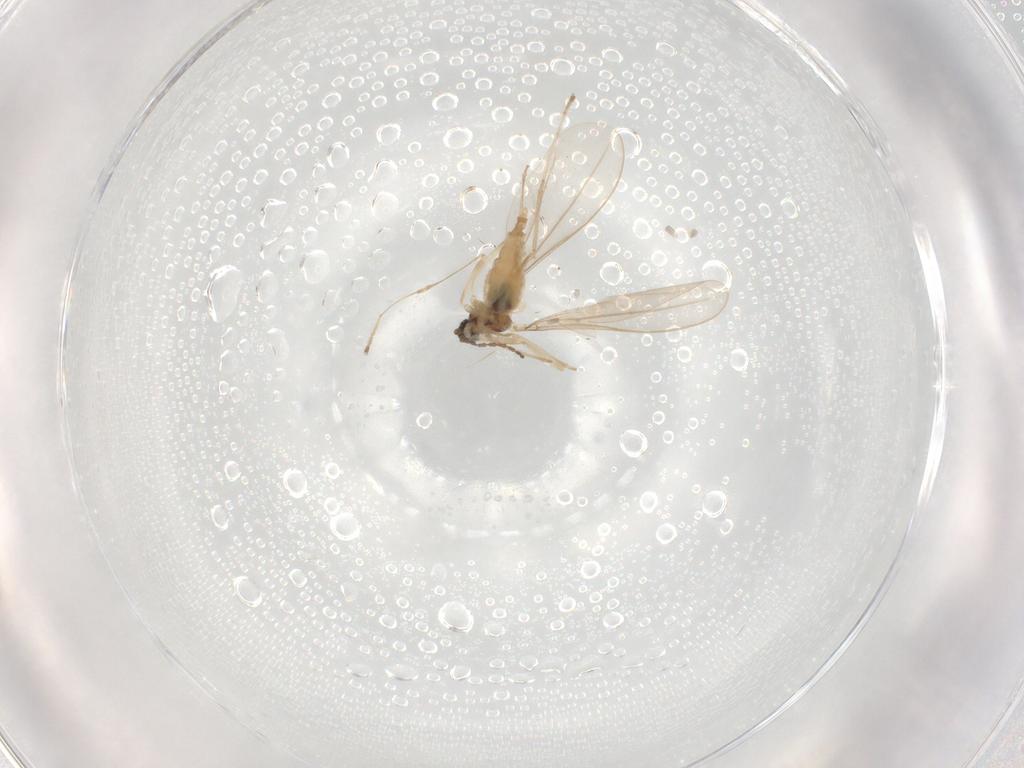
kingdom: Animalia
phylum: Arthropoda
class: Insecta
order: Diptera
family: Cecidomyiidae
